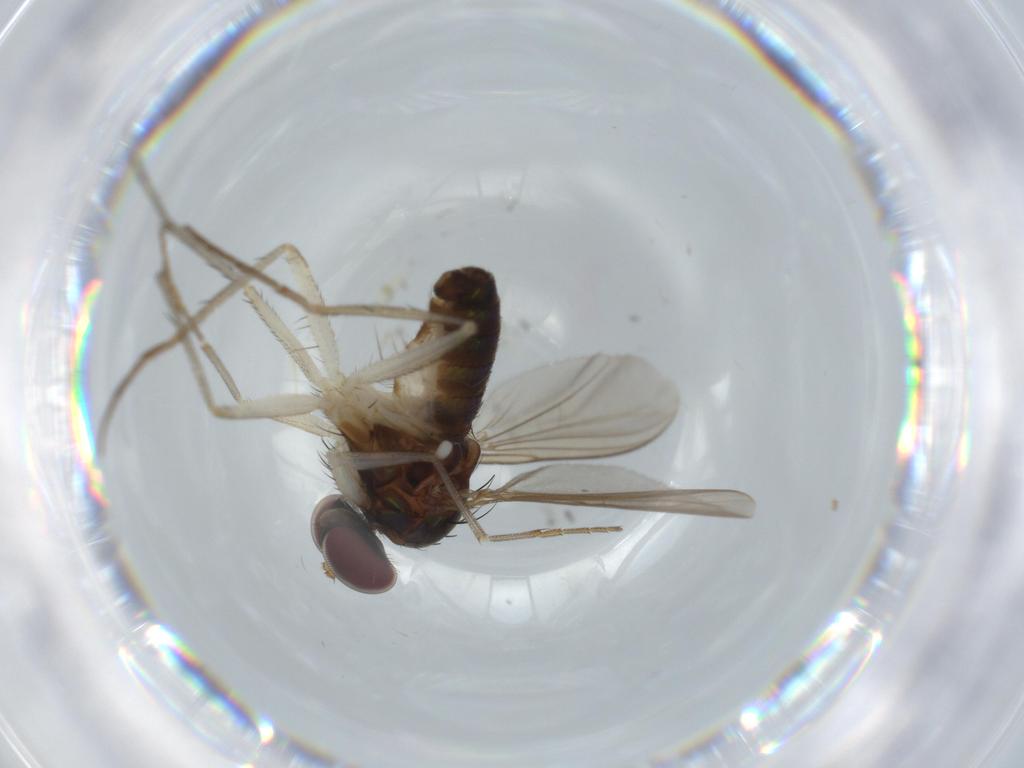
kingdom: Animalia
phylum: Arthropoda
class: Insecta
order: Diptera
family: Dolichopodidae
